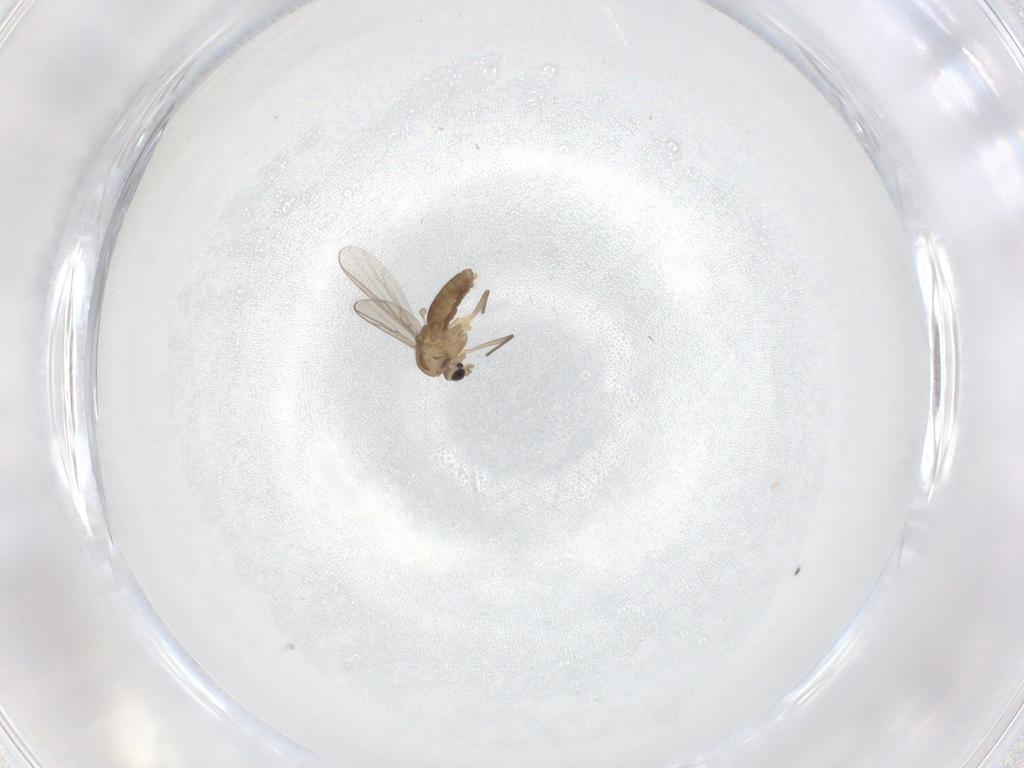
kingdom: Animalia
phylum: Arthropoda
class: Insecta
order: Diptera
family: Chironomidae
